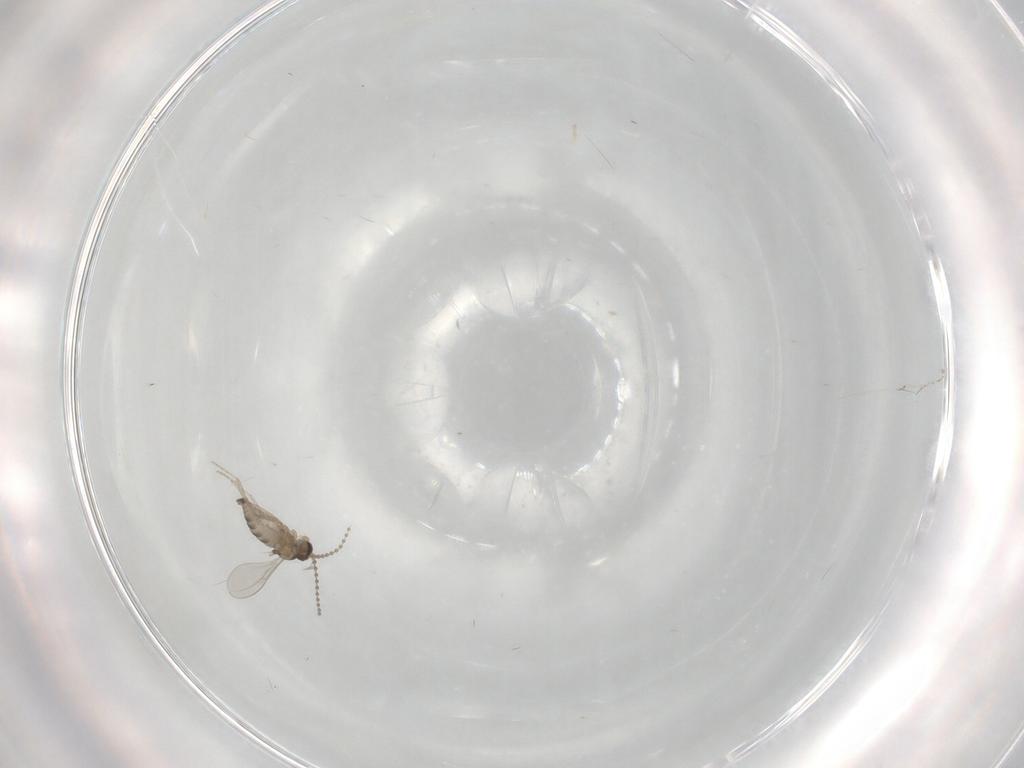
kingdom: Animalia
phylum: Arthropoda
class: Insecta
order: Diptera
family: Cecidomyiidae
